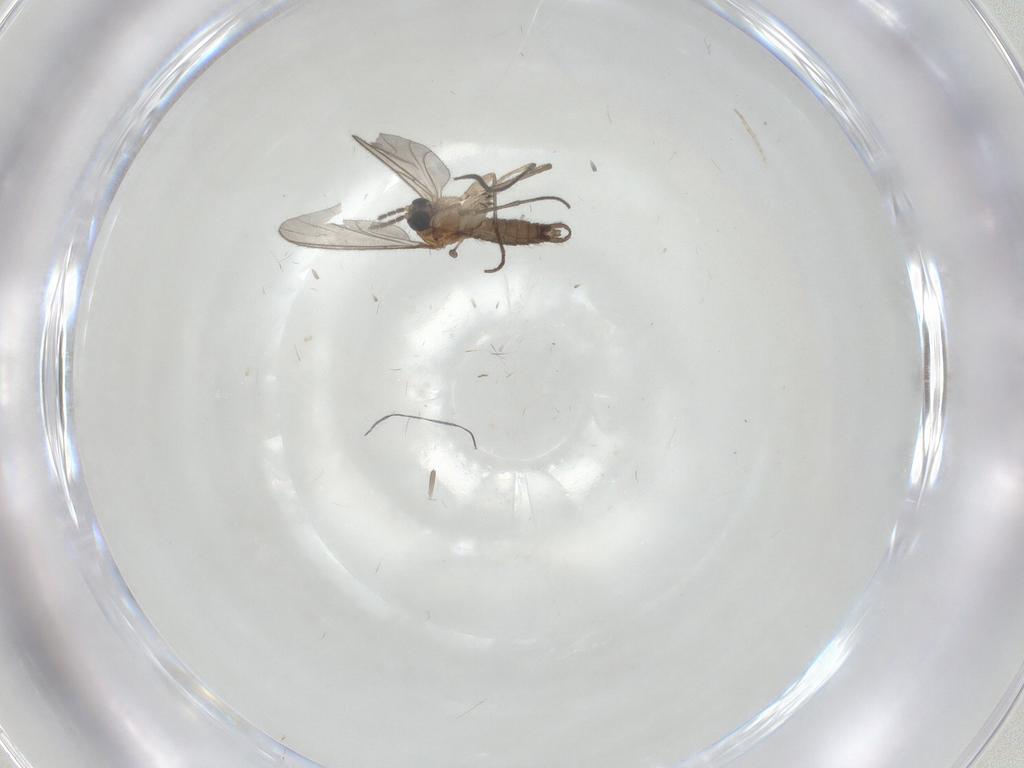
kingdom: Animalia
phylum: Arthropoda
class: Insecta
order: Diptera
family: Sciaridae
